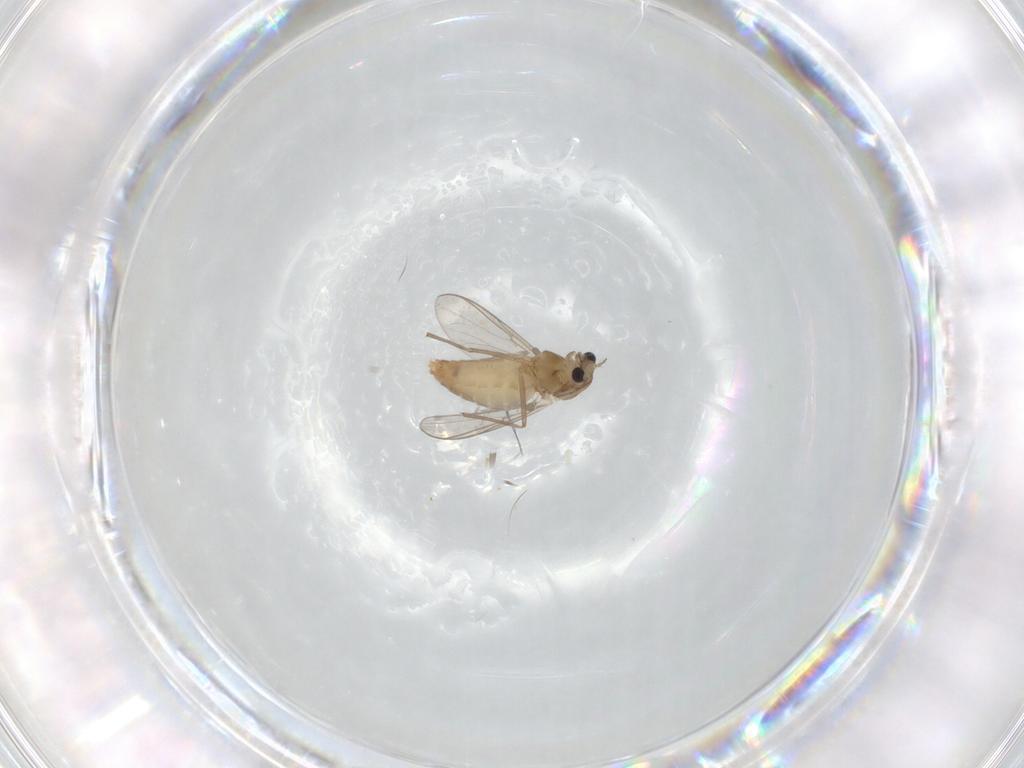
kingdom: Animalia
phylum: Arthropoda
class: Insecta
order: Diptera
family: Chironomidae
